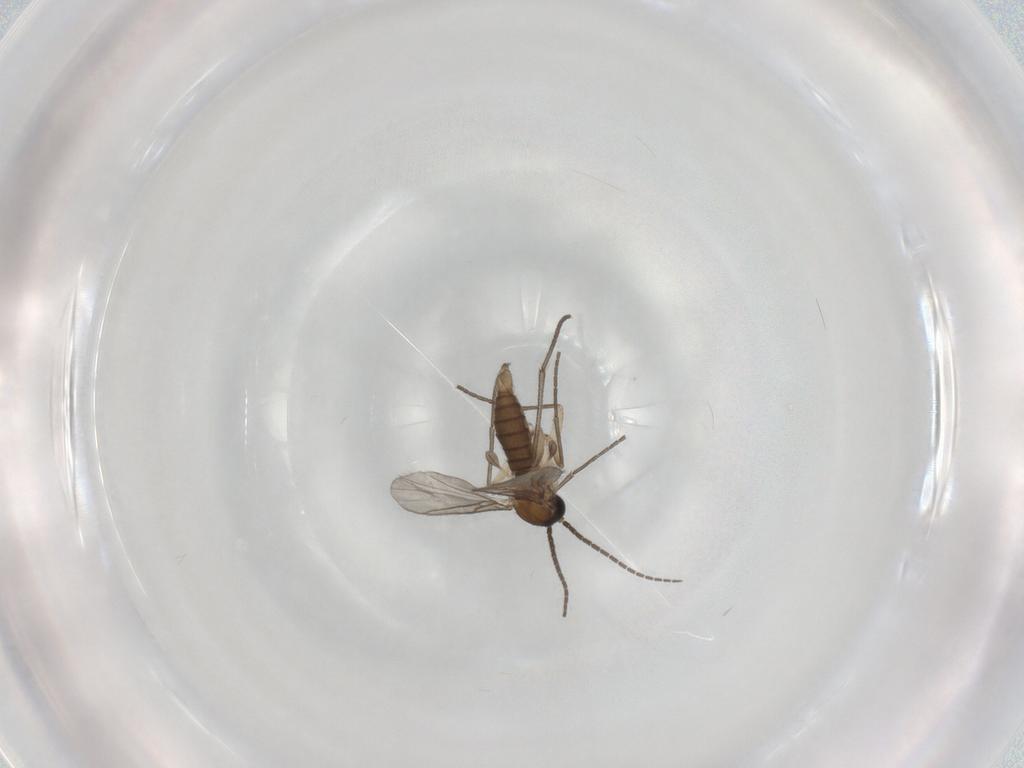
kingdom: Animalia
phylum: Arthropoda
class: Insecta
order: Diptera
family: Sciaridae
